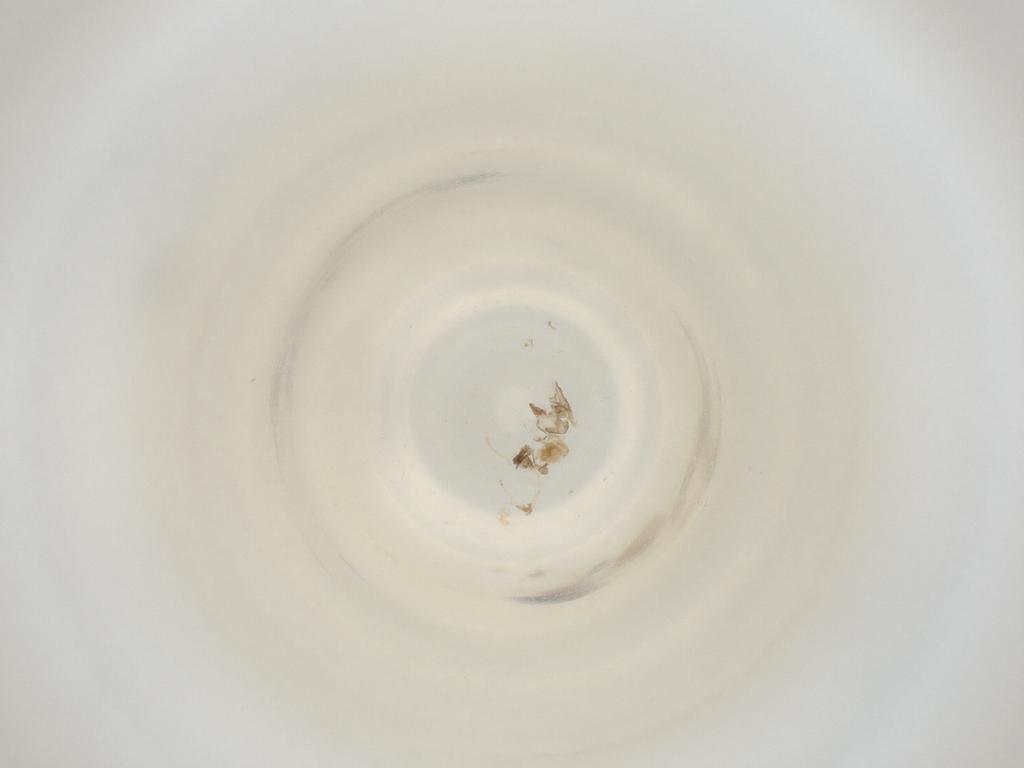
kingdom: Animalia
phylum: Arthropoda
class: Insecta
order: Diptera
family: Cecidomyiidae
